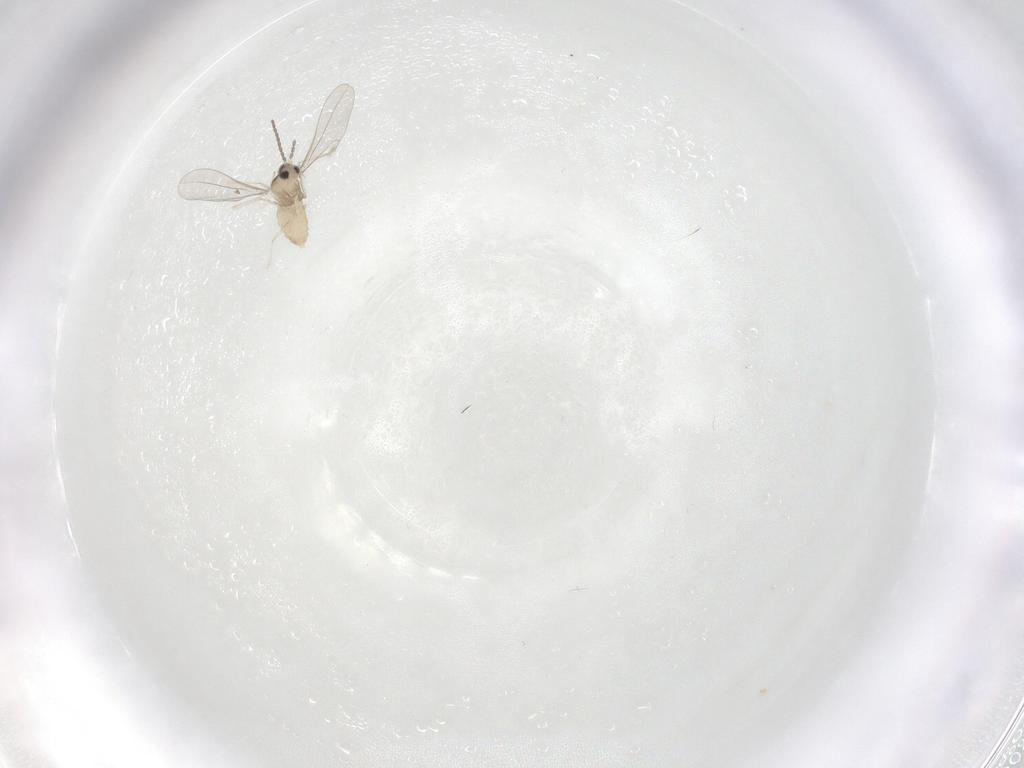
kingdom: Animalia
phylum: Arthropoda
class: Insecta
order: Diptera
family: Cecidomyiidae
